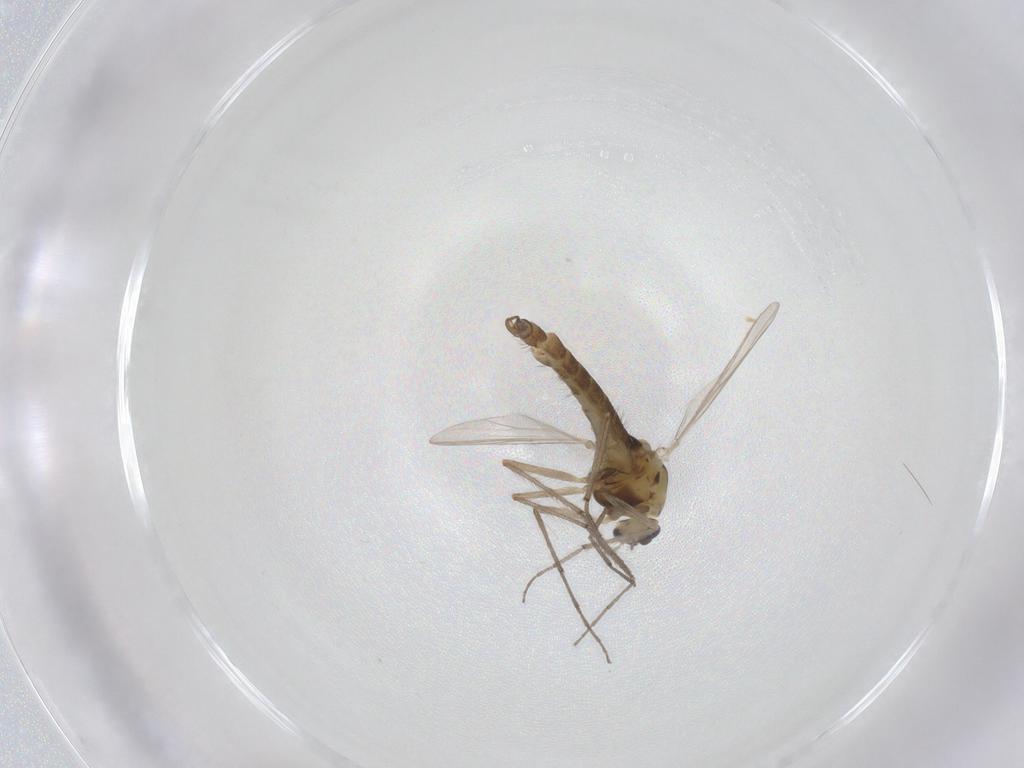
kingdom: Animalia
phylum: Arthropoda
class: Insecta
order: Diptera
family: Chironomidae
